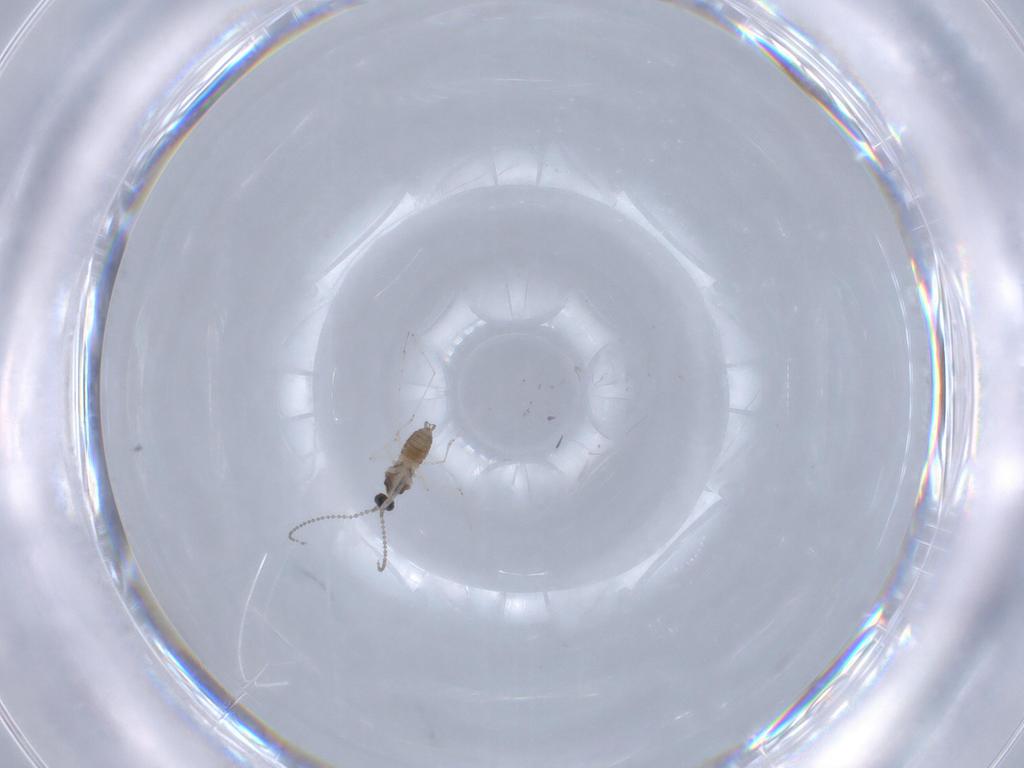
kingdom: Animalia
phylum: Arthropoda
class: Insecta
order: Diptera
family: Cecidomyiidae
